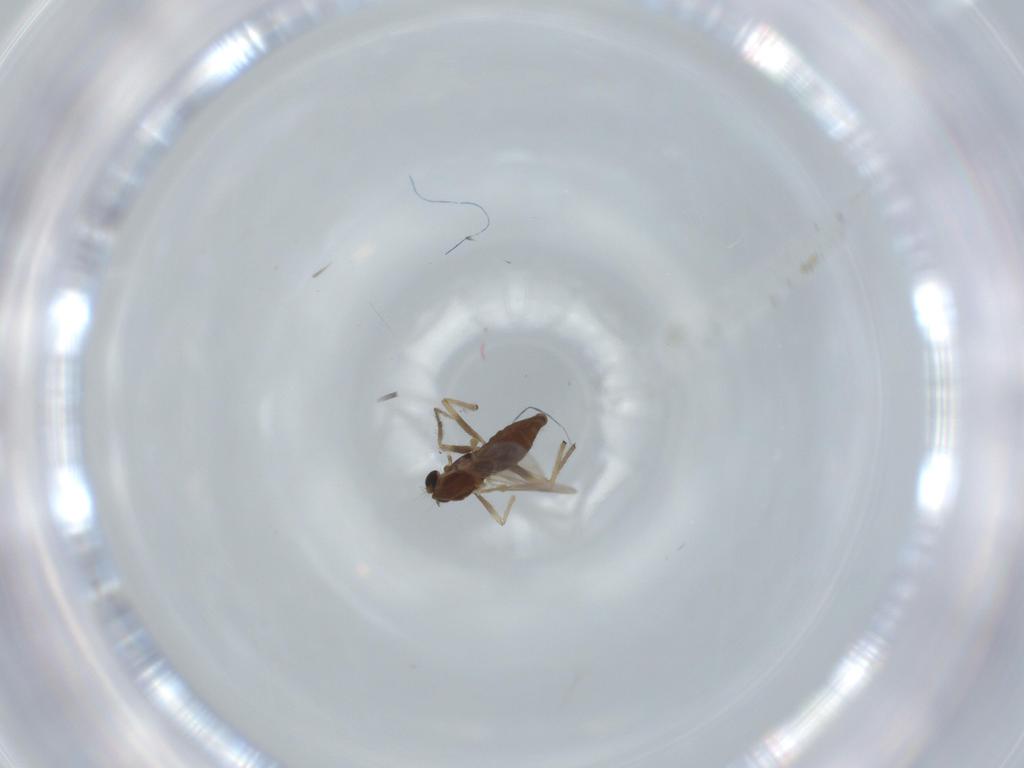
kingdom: Animalia
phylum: Arthropoda
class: Insecta
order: Diptera
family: Chironomidae
